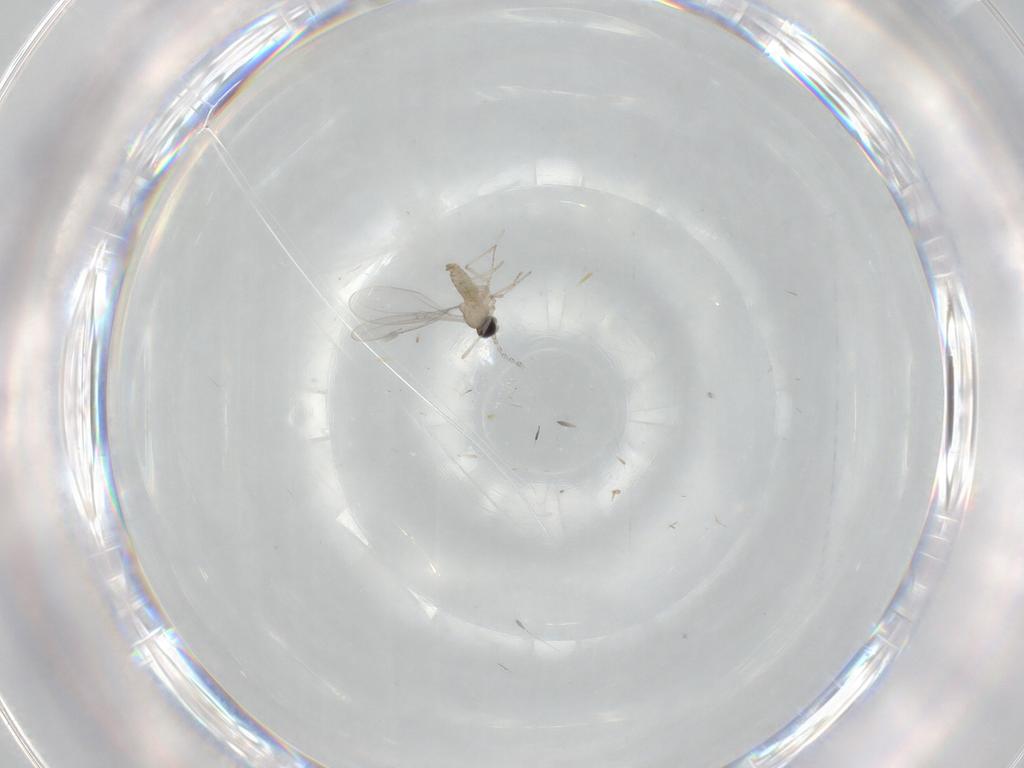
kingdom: Animalia
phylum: Arthropoda
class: Insecta
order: Diptera
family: Cecidomyiidae
